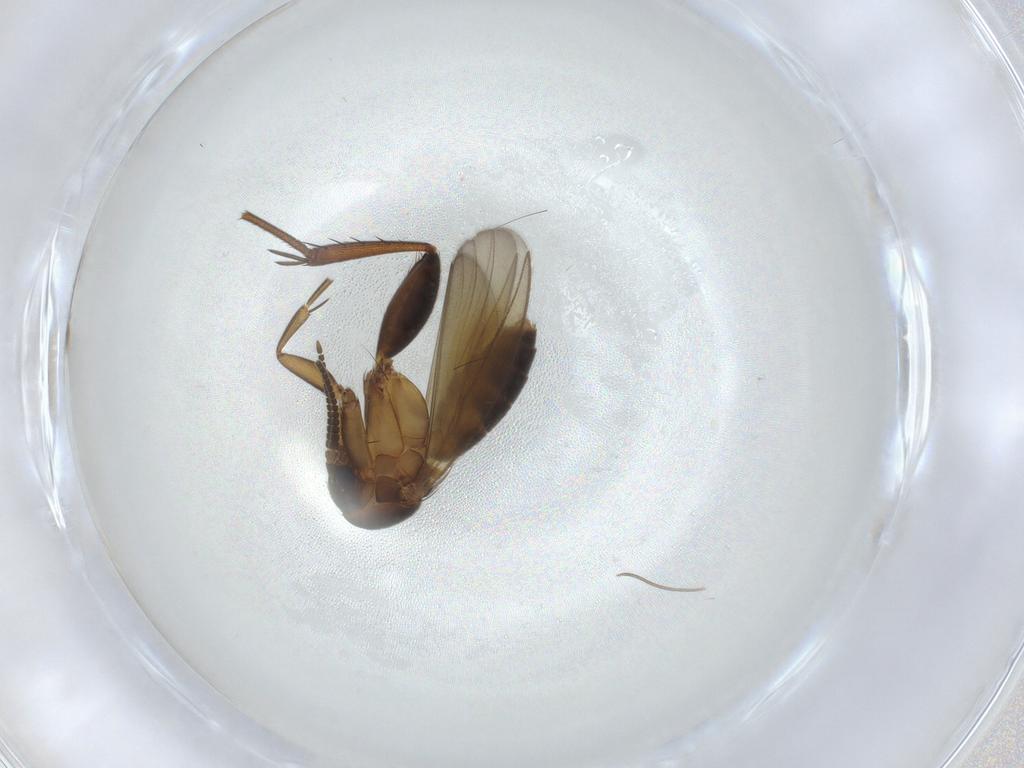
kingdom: Animalia
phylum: Arthropoda
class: Insecta
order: Diptera
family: Mycetophilidae
